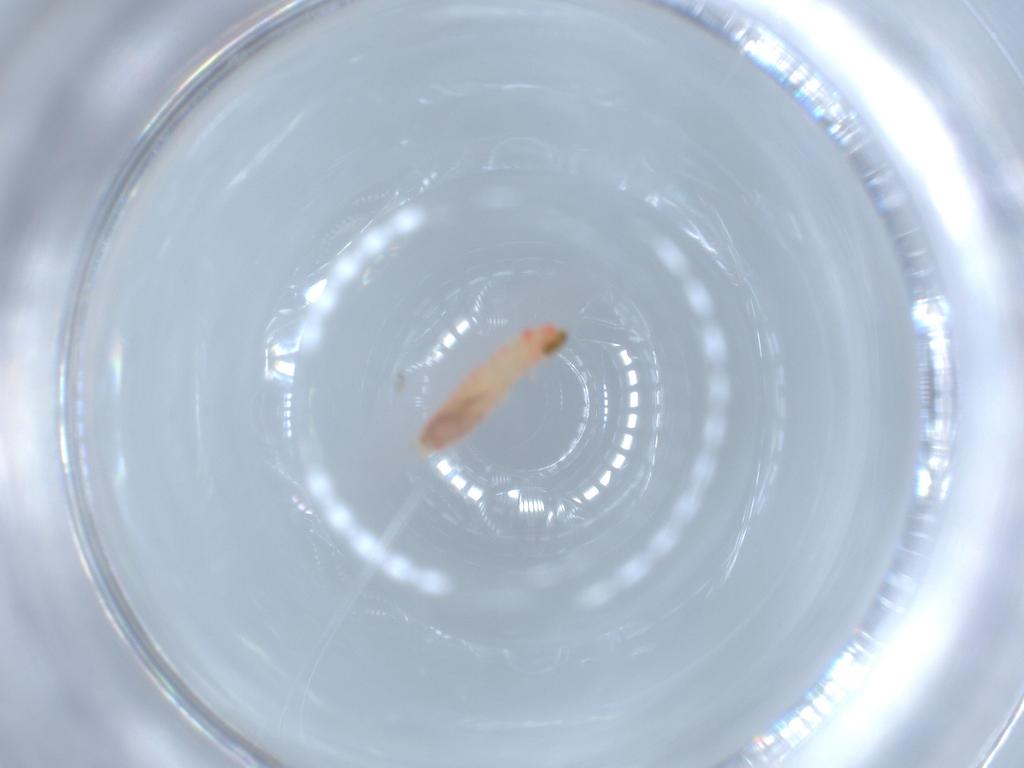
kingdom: Animalia
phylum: Arthropoda
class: Insecta
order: Coleoptera
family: Melyridae
